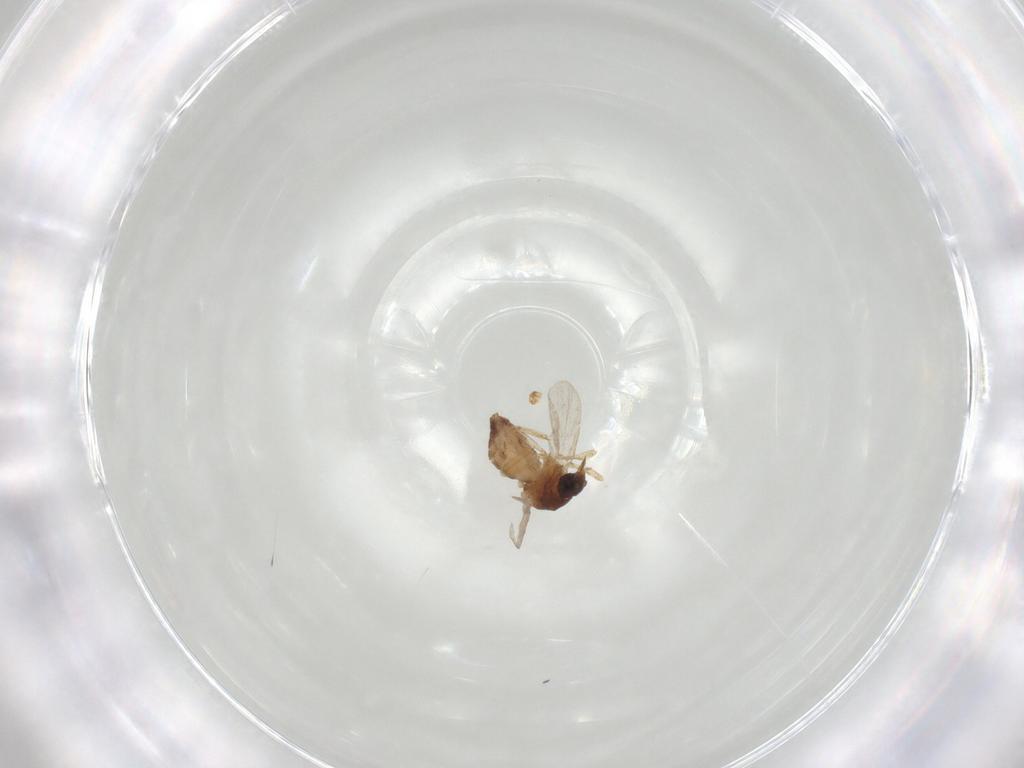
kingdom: Animalia
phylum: Arthropoda
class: Insecta
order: Diptera
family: Ceratopogonidae
